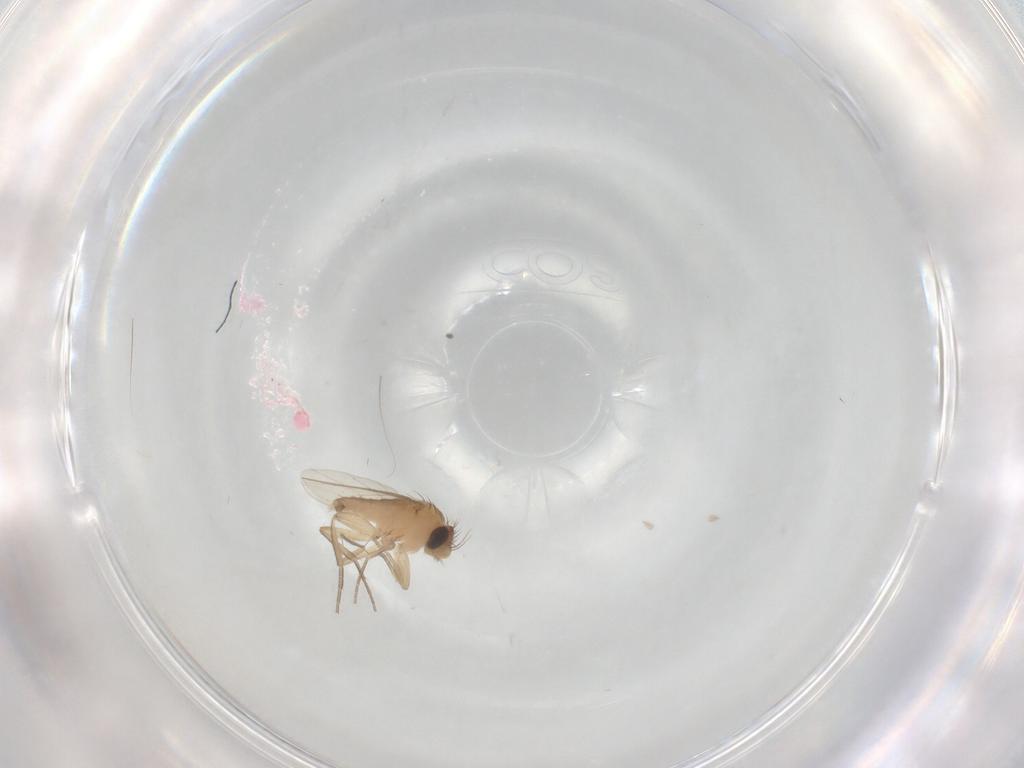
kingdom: Animalia
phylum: Arthropoda
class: Insecta
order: Diptera
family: Phoridae
